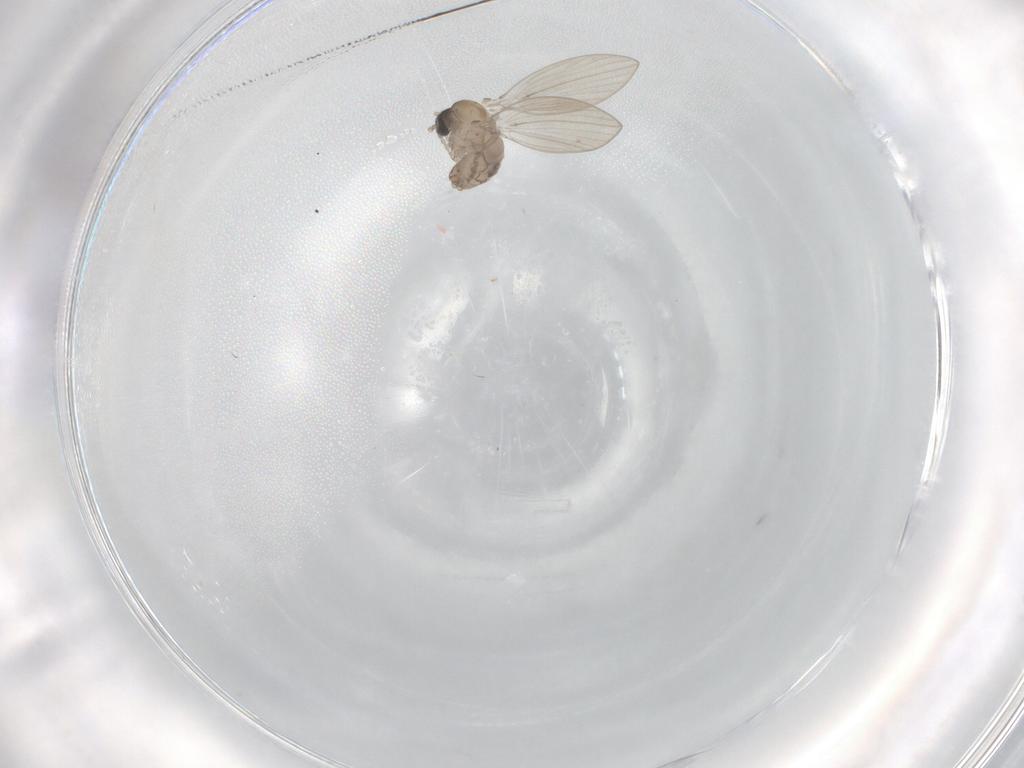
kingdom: Animalia
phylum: Arthropoda
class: Insecta
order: Diptera
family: Psychodidae
